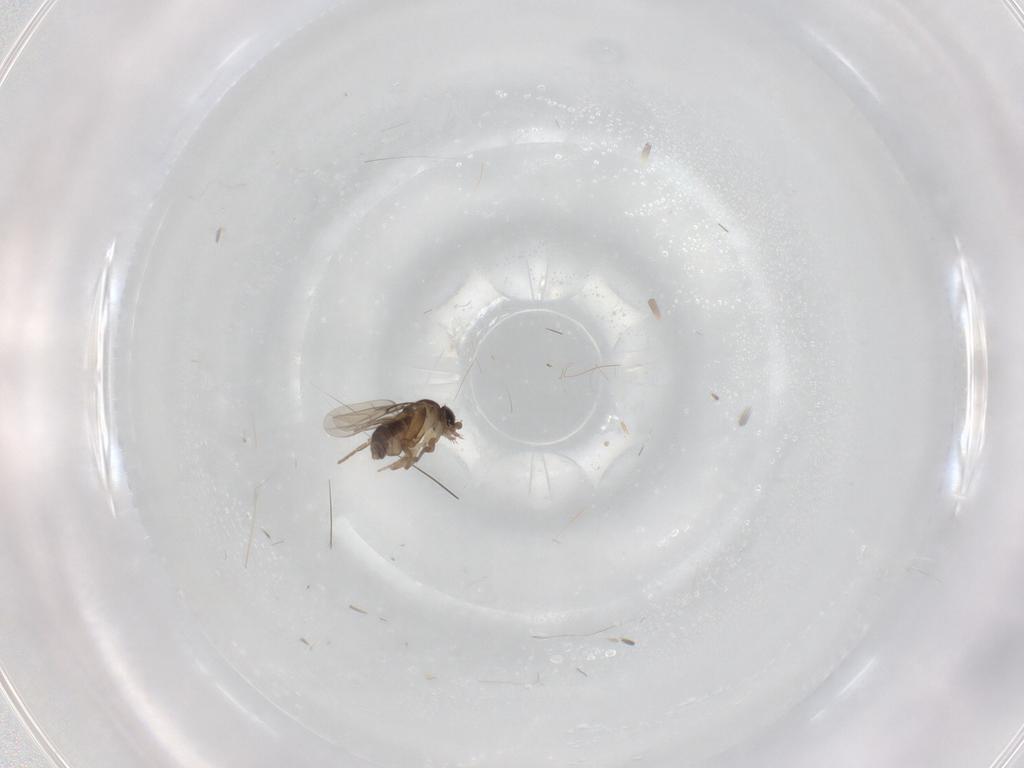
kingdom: Animalia
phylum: Arthropoda
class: Insecta
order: Diptera
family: Phoridae
